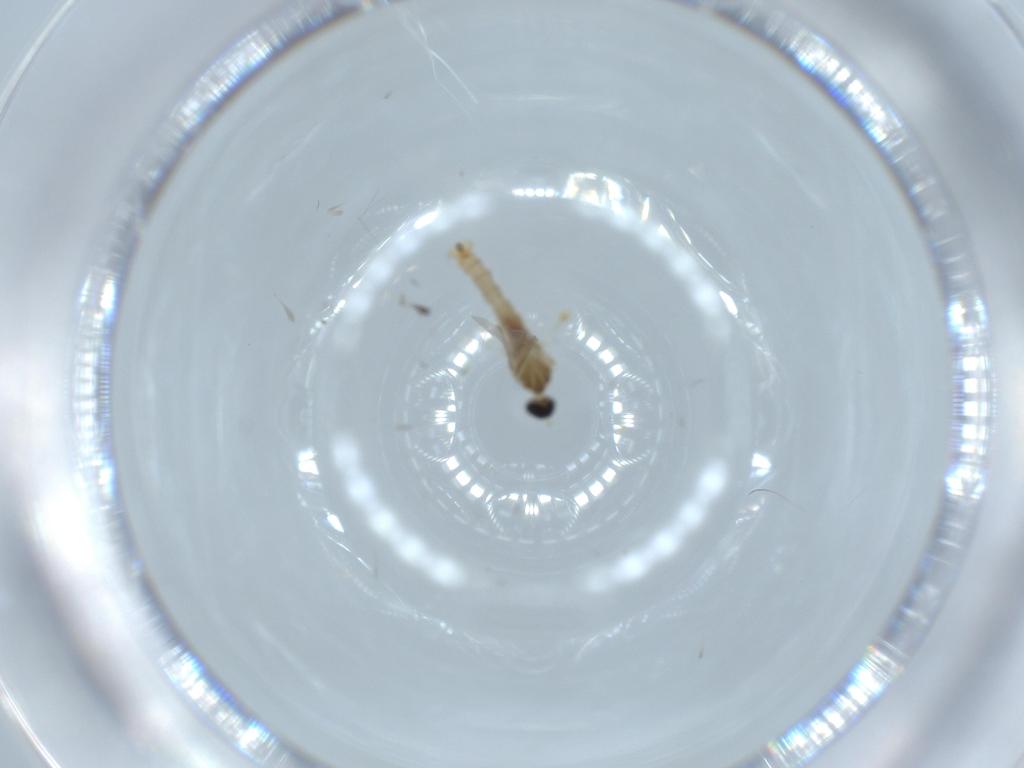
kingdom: Animalia
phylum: Arthropoda
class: Insecta
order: Diptera
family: Cecidomyiidae
